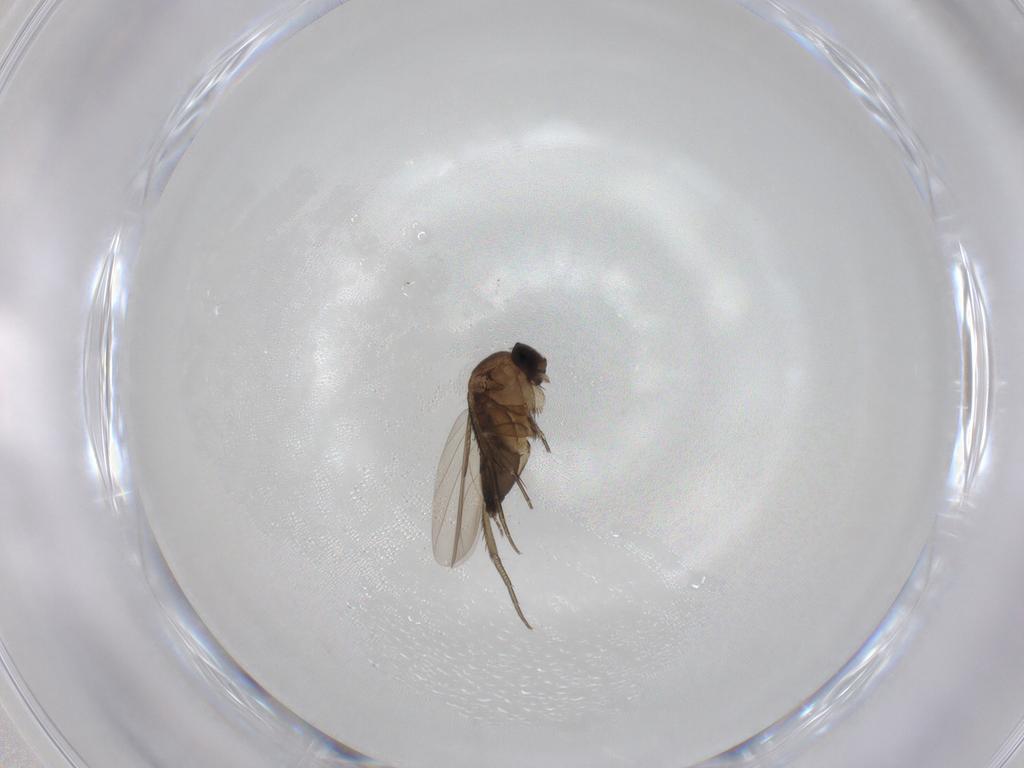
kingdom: Animalia
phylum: Arthropoda
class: Insecta
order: Diptera
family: Phoridae
